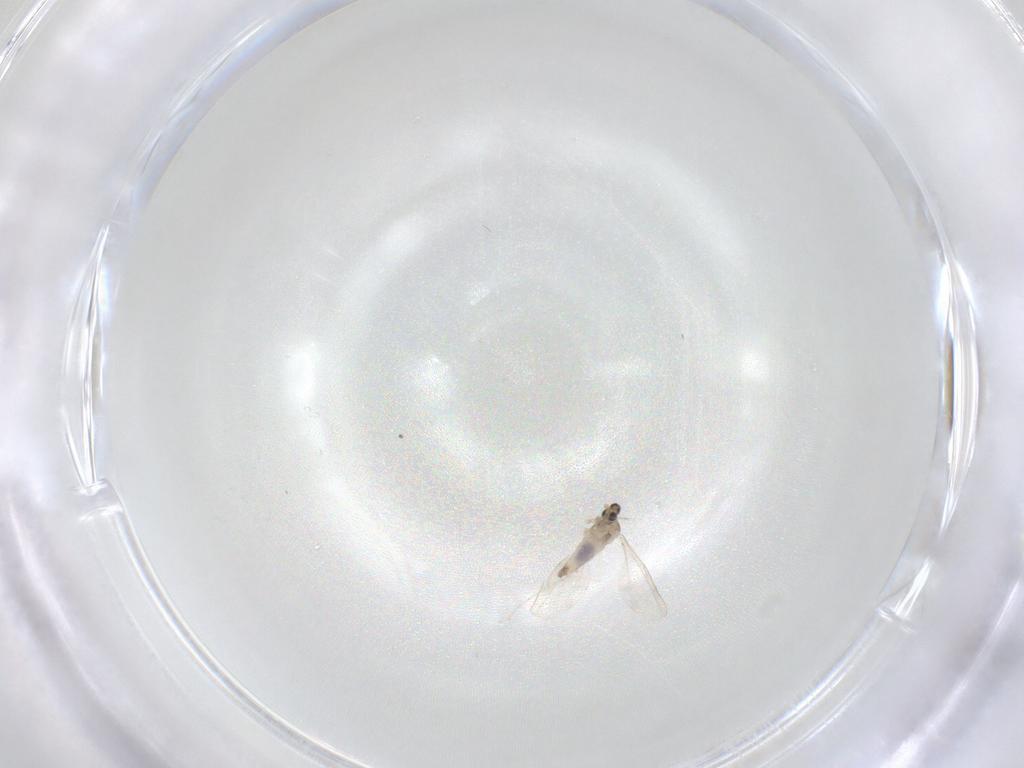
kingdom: Animalia
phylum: Arthropoda
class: Insecta
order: Diptera
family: Cecidomyiidae
